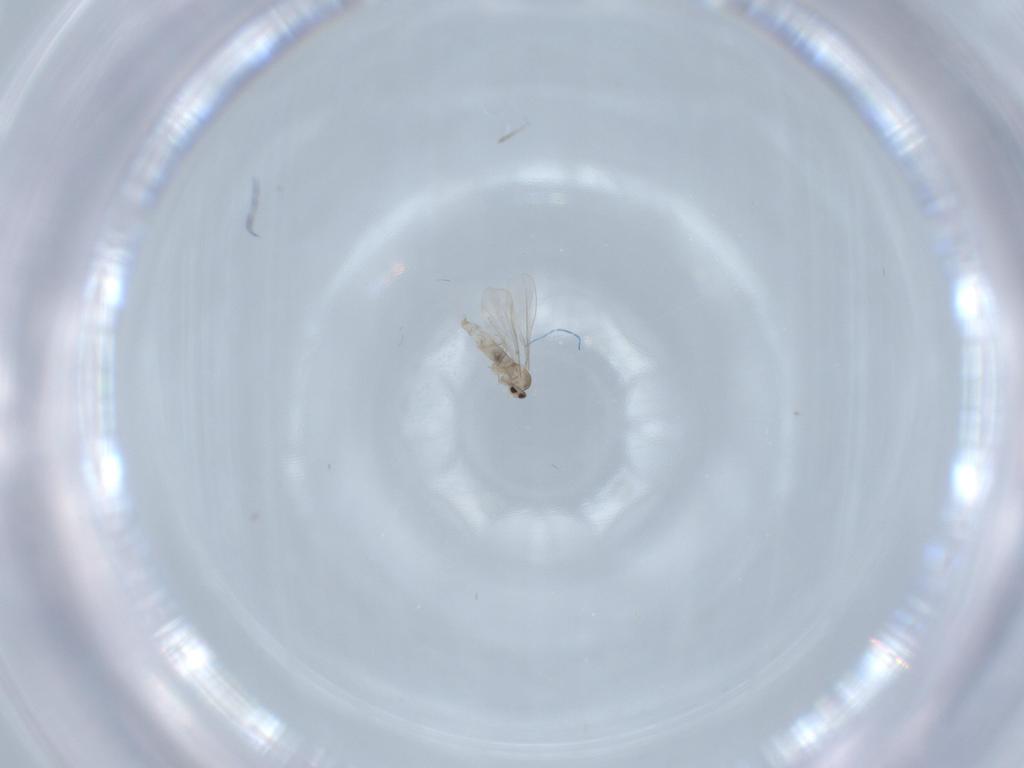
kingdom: Animalia
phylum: Arthropoda
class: Insecta
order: Diptera
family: Cecidomyiidae
